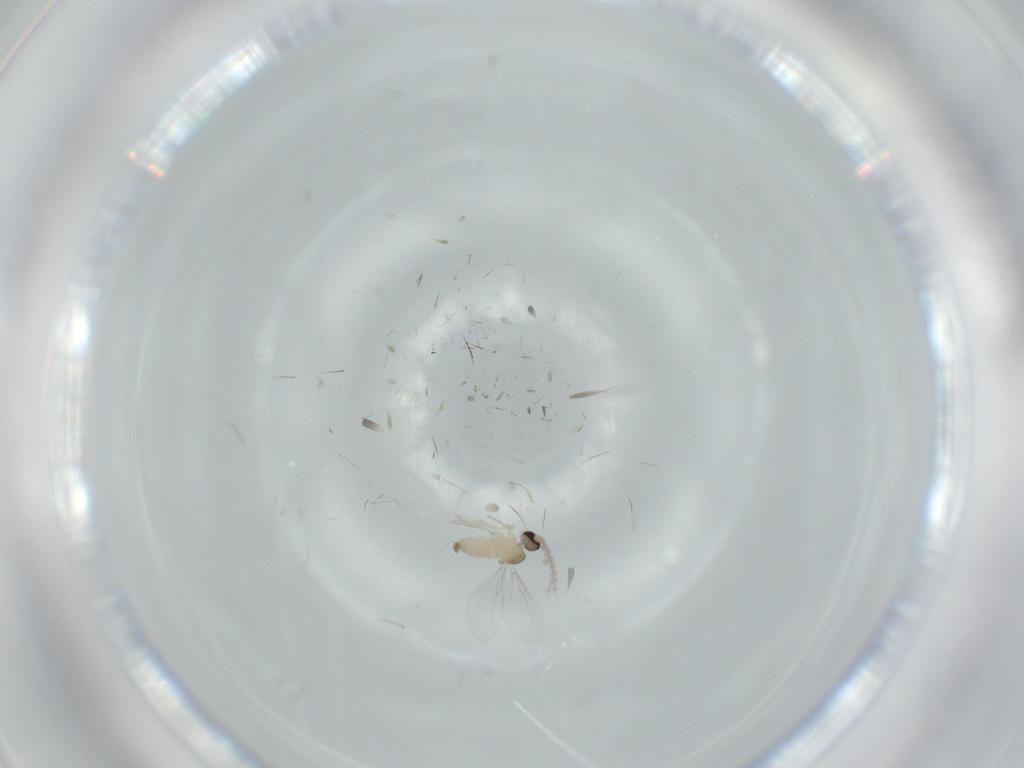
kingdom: Animalia
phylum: Arthropoda
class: Insecta
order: Diptera
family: Cecidomyiidae
